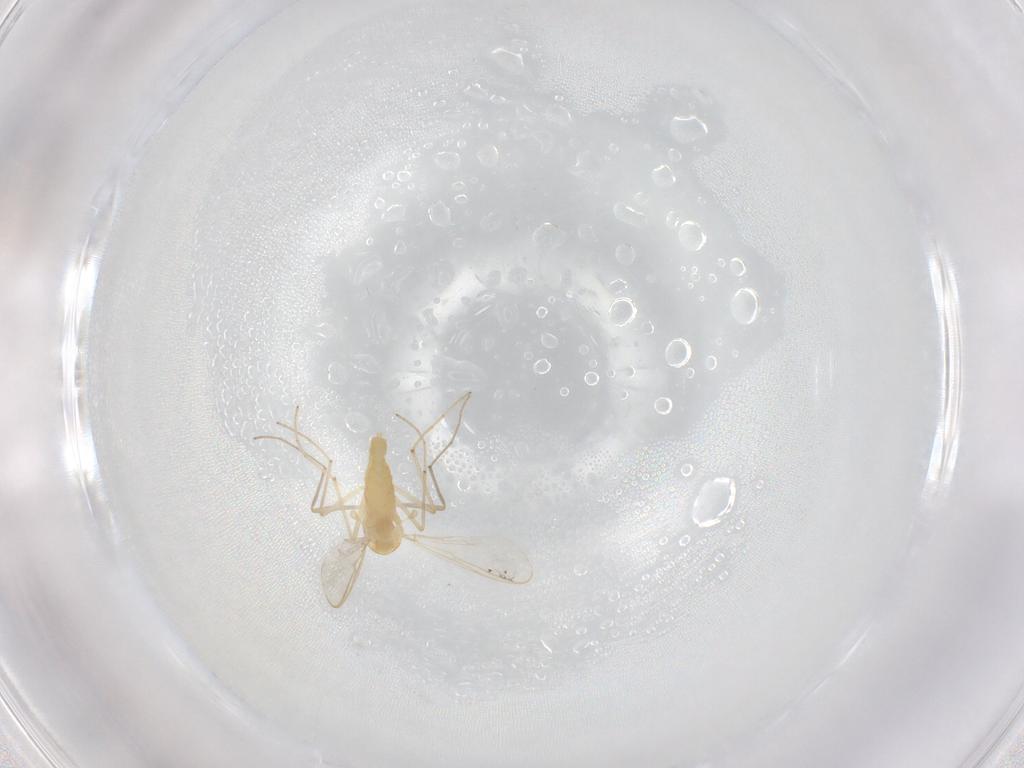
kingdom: Animalia
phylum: Arthropoda
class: Insecta
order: Diptera
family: Chironomidae
